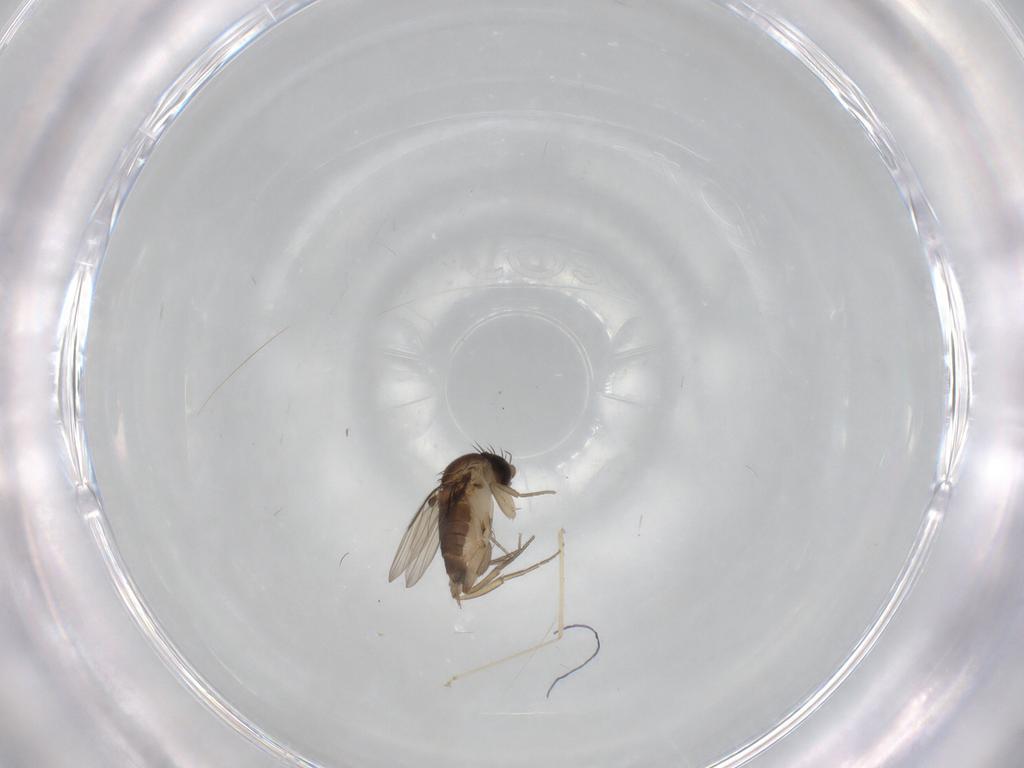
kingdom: Animalia
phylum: Arthropoda
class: Insecta
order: Diptera
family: Phoridae
